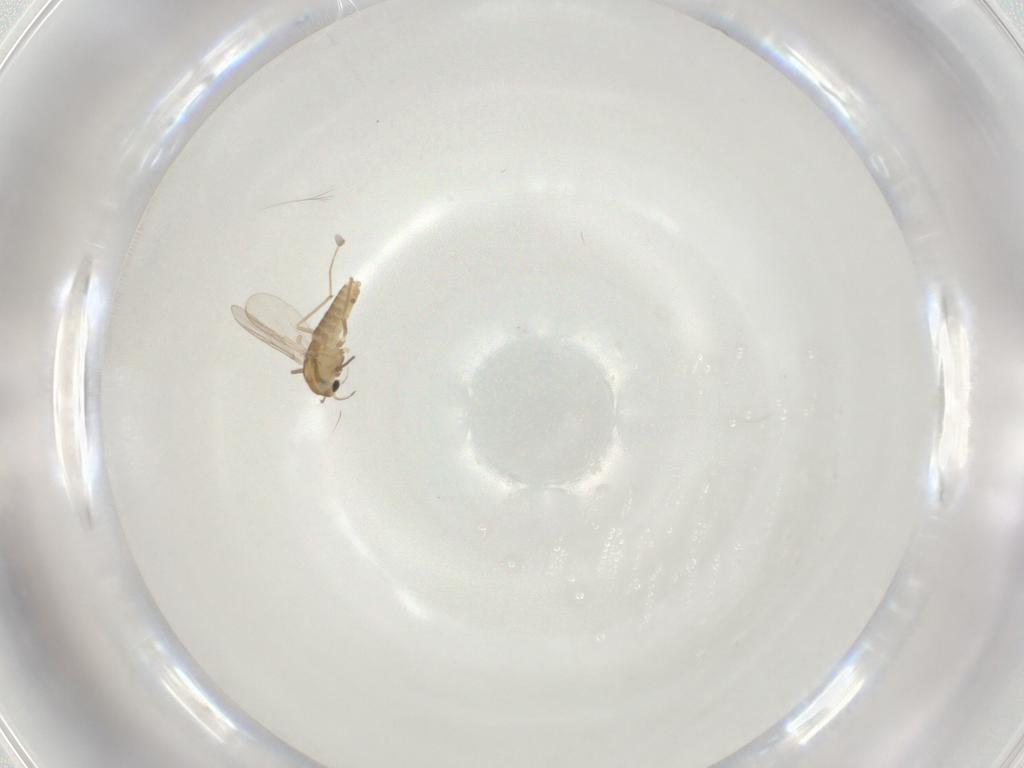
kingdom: Animalia
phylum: Arthropoda
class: Insecta
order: Diptera
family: Chironomidae
